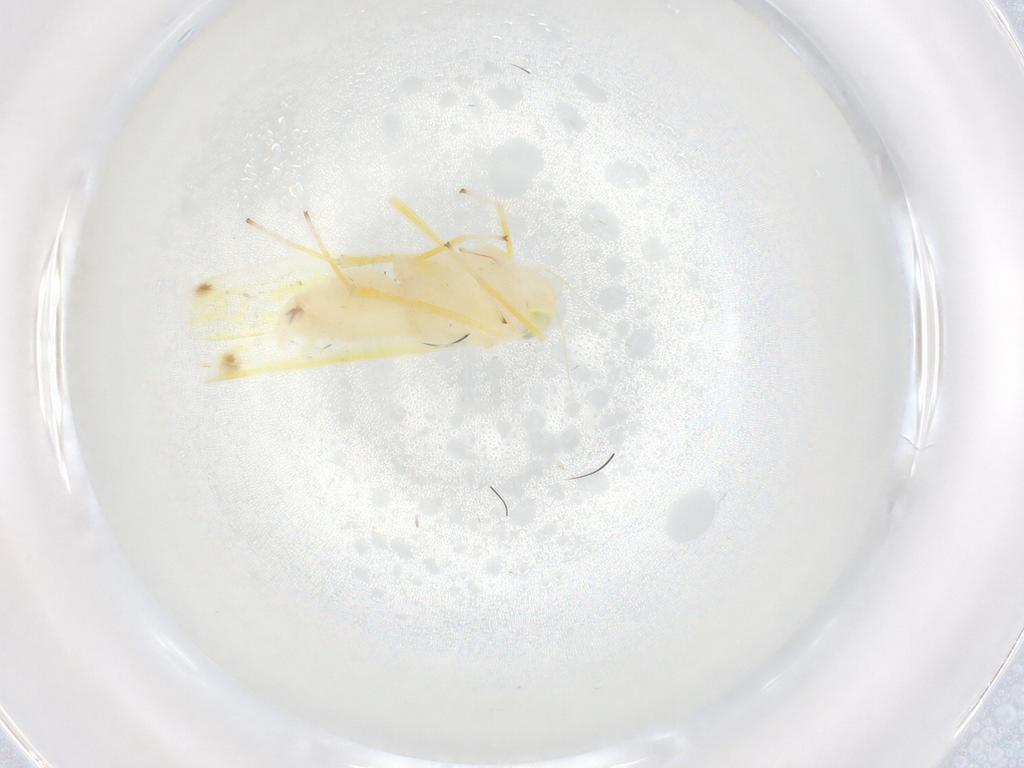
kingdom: Animalia
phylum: Arthropoda
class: Insecta
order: Hemiptera
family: Cicadellidae
